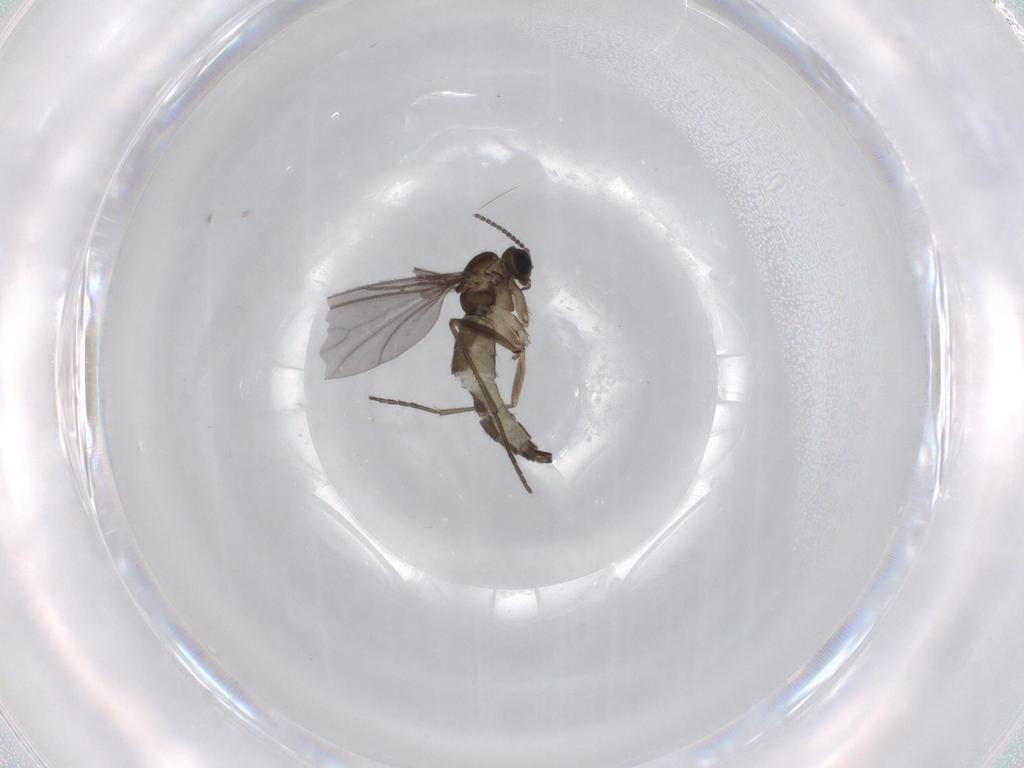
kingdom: Animalia
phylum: Arthropoda
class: Insecta
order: Diptera
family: Sciaridae
